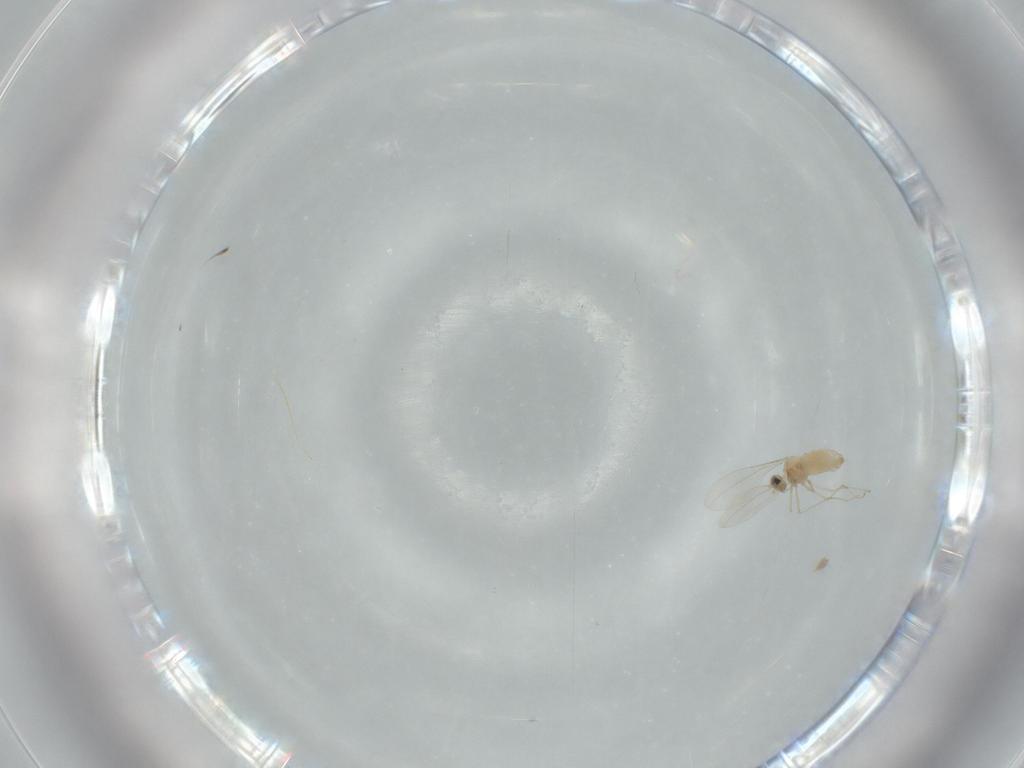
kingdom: Animalia
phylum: Arthropoda
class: Insecta
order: Diptera
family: Cecidomyiidae
